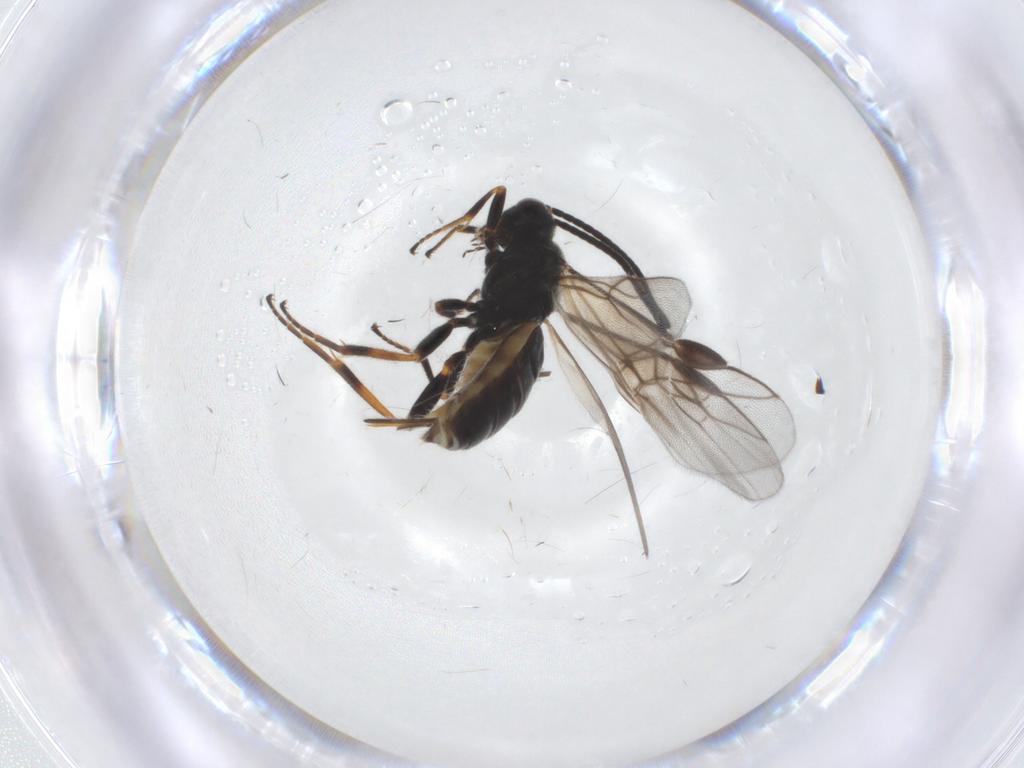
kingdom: Animalia
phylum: Arthropoda
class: Insecta
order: Hymenoptera
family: Braconidae
